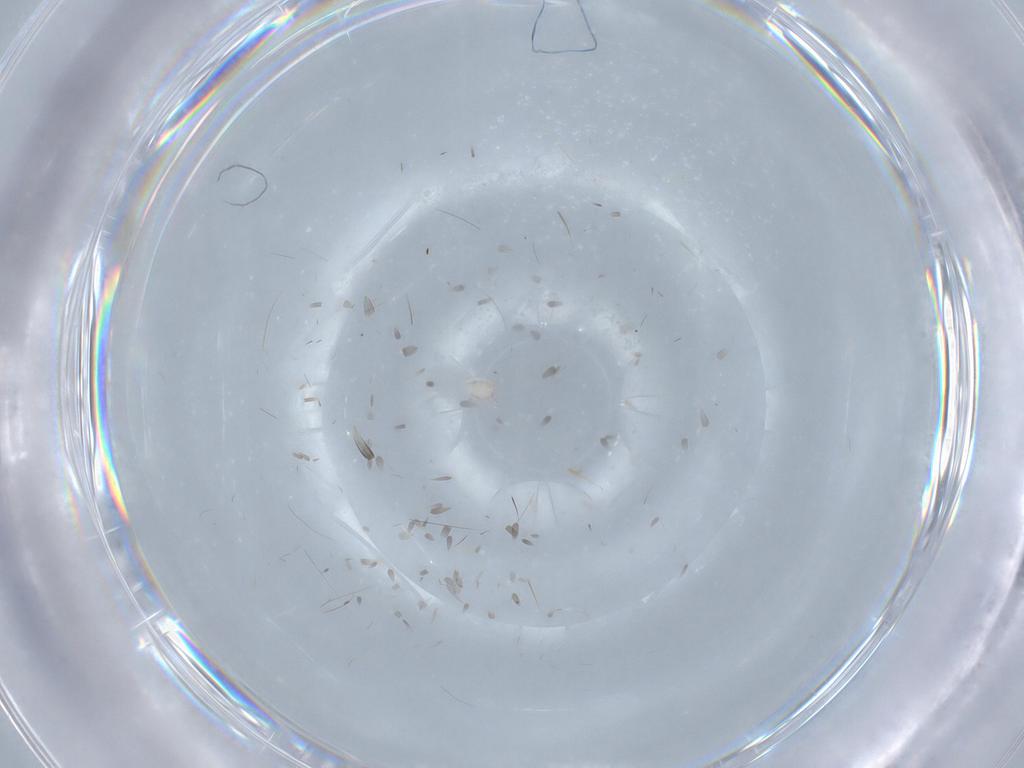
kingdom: Animalia
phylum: Arthropoda
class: Arachnida
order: Trombidiformes
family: Limnesiidae
